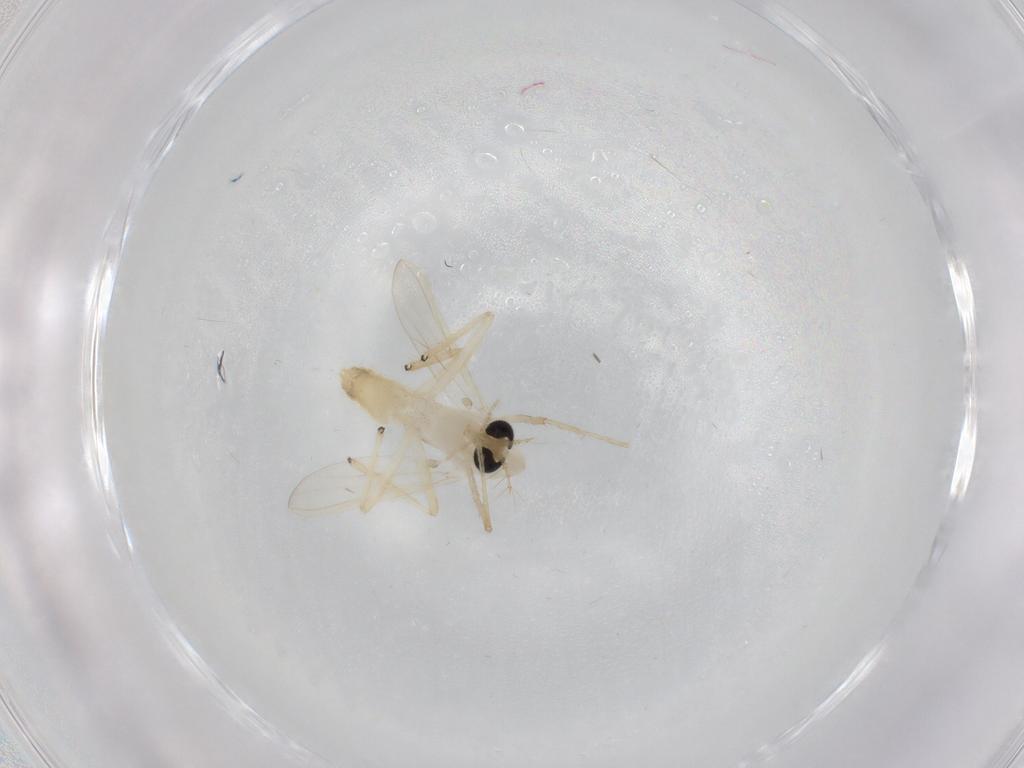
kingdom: Animalia
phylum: Arthropoda
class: Insecta
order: Diptera
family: Chironomidae
